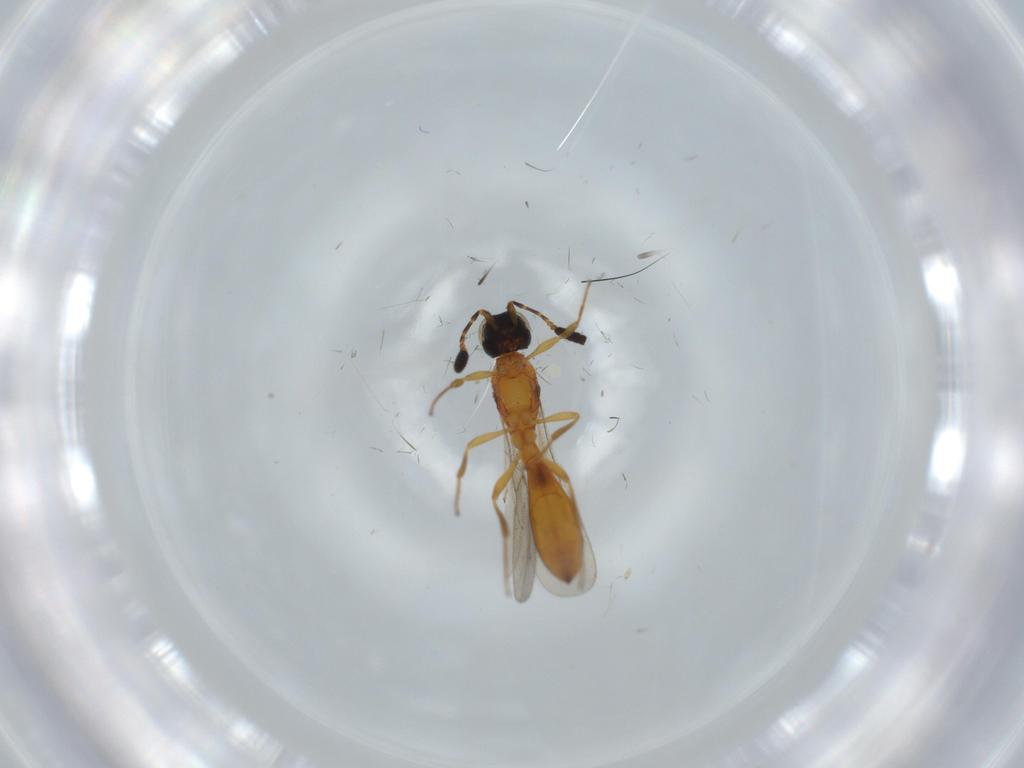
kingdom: Animalia
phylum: Arthropoda
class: Insecta
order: Hymenoptera
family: Scelionidae
